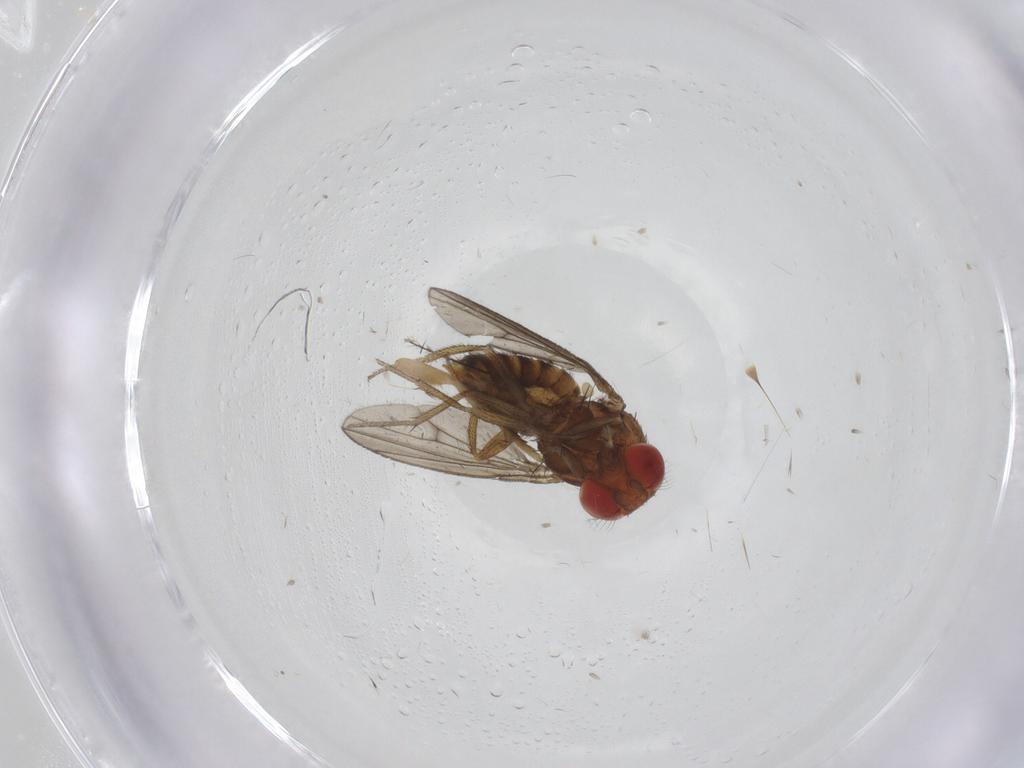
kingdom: Animalia
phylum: Arthropoda
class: Insecta
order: Diptera
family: Drosophilidae
